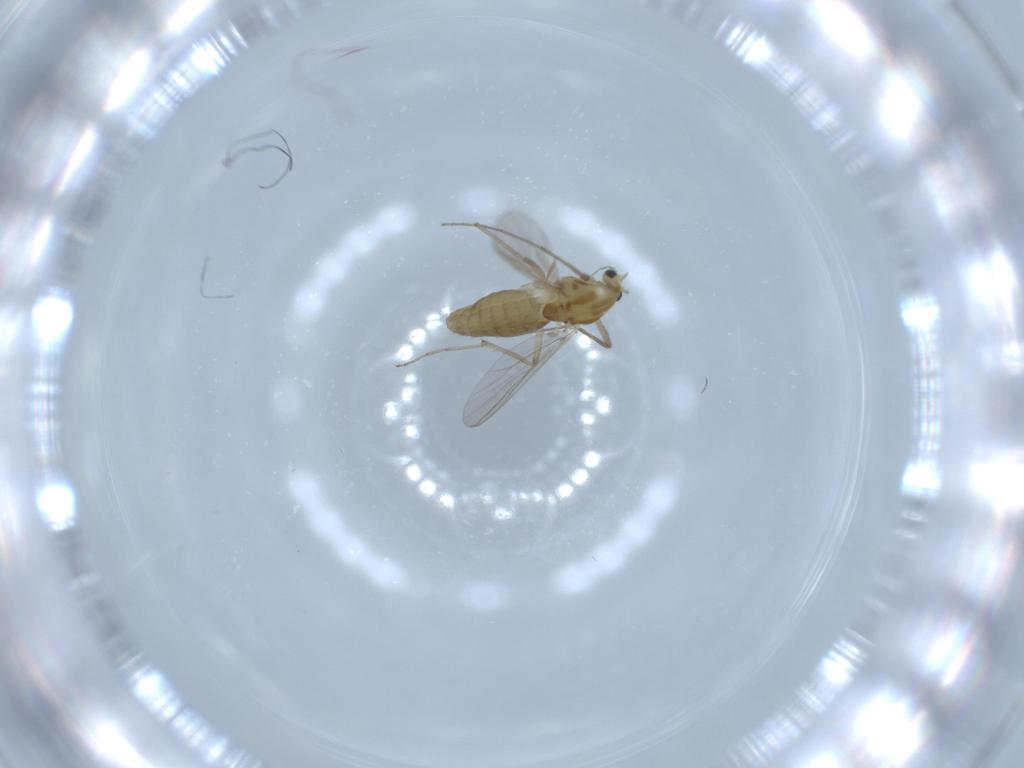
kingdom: Animalia
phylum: Arthropoda
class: Insecta
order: Diptera
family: Chironomidae
